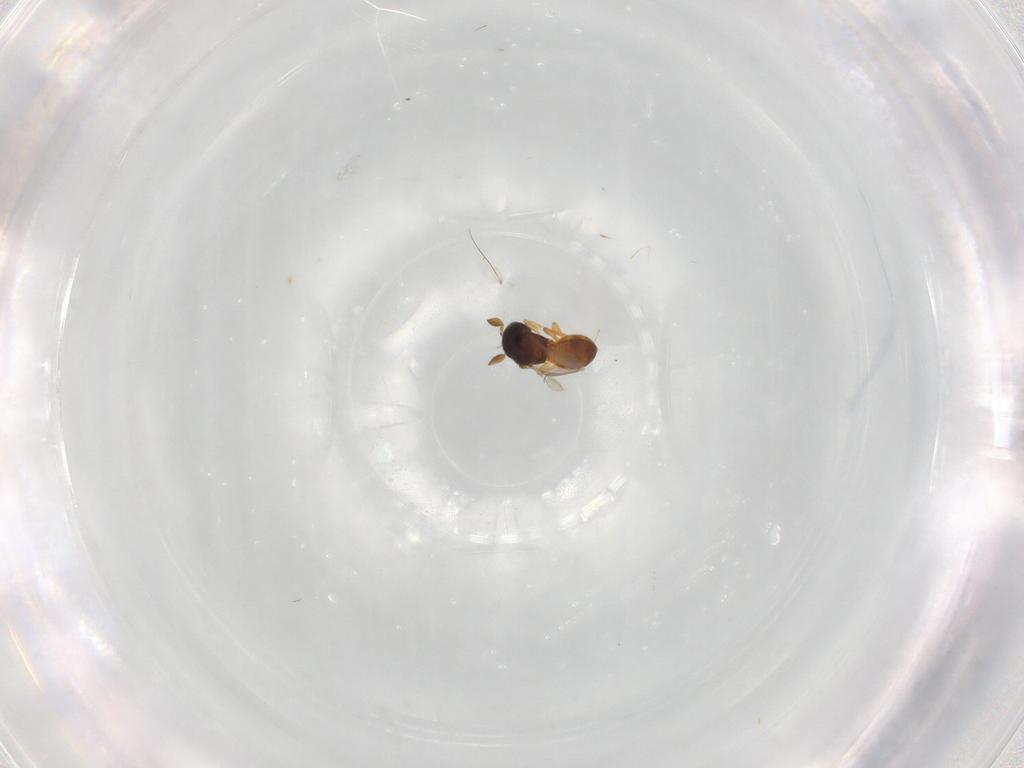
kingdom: Animalia
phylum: Arthropoda
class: Insecta
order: Hymenoptera
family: Scelionidae
